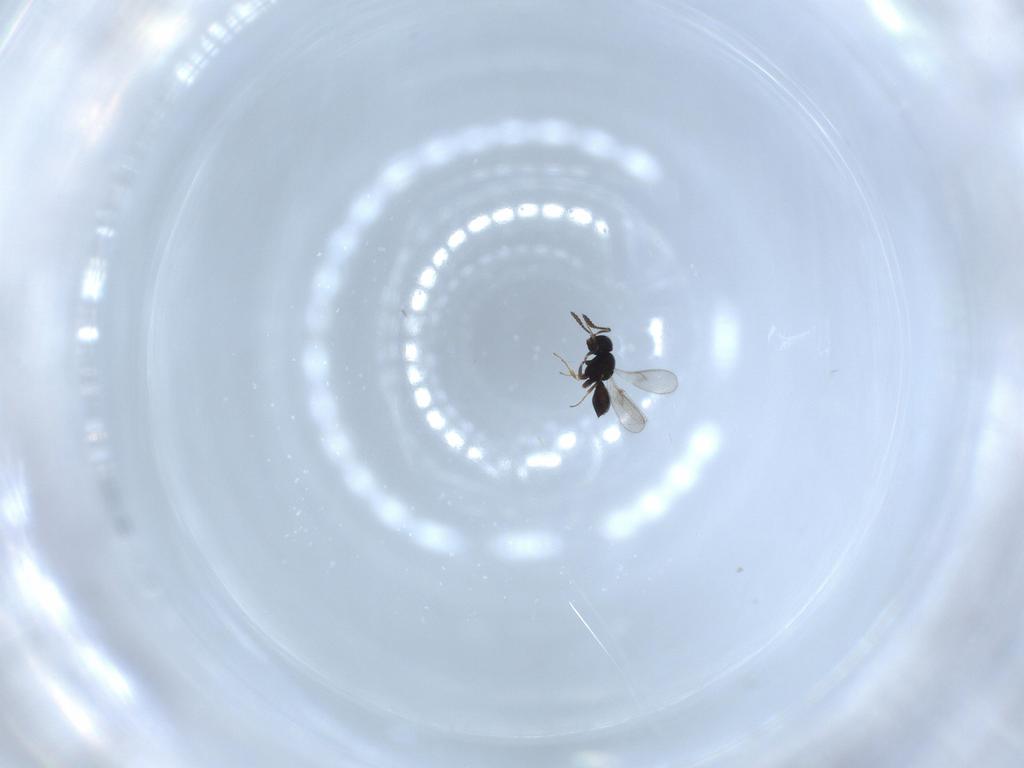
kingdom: Animalia
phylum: Arthropoda
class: Insecta
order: Hymenoptera
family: Scelionidae
